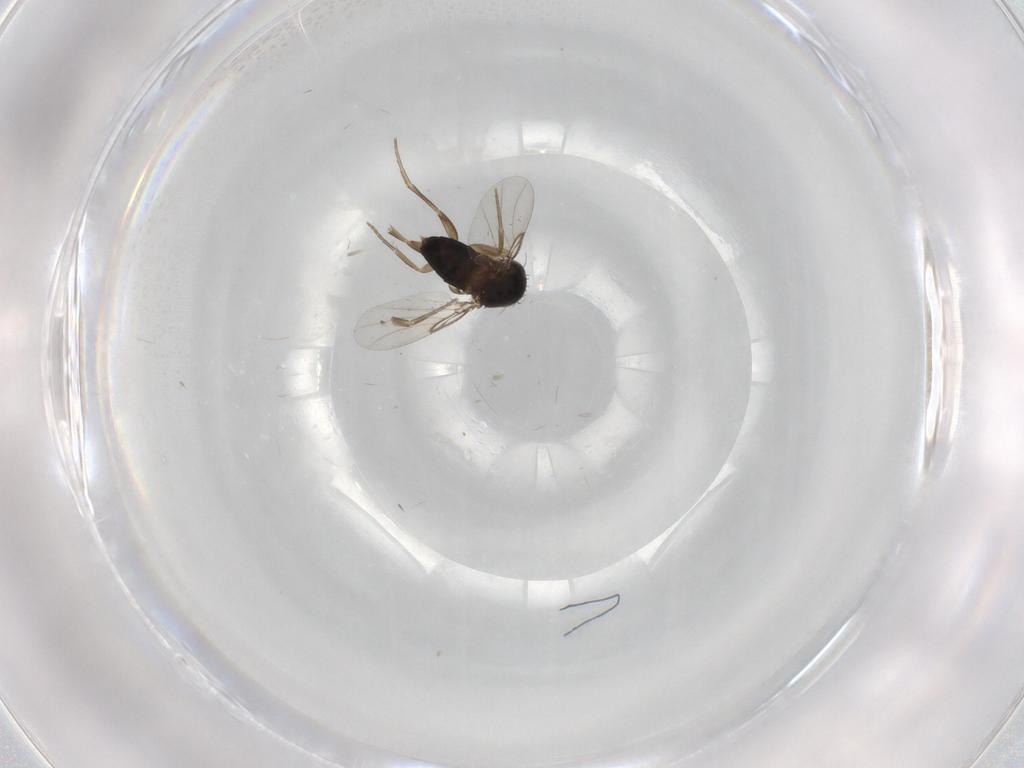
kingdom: Animalia
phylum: Arthropoda
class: Insecta
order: Diptera
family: Phoridae
